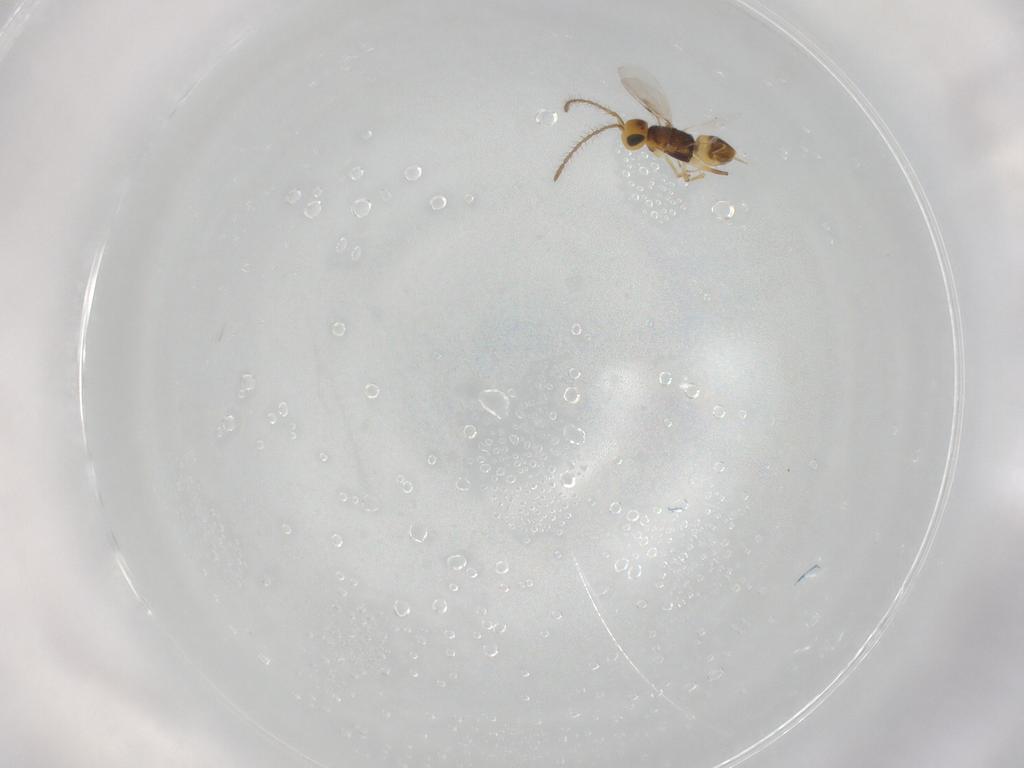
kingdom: Animalia
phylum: Arthropoda
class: Insecta
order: Hymenoptera
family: Encyrtidae
